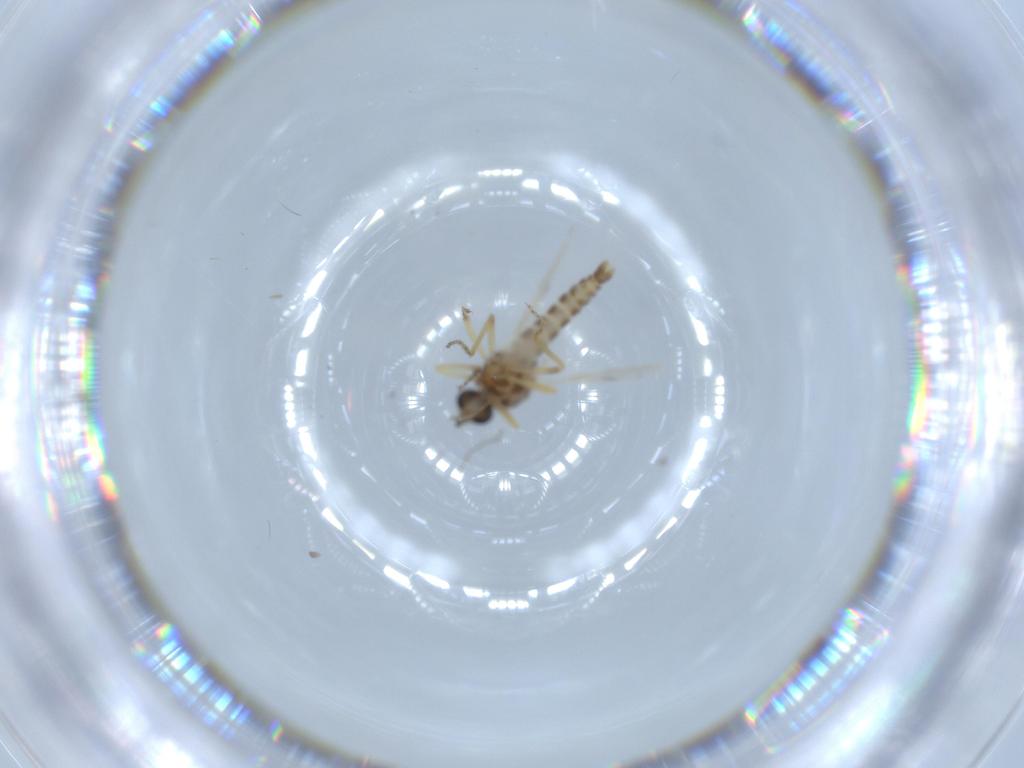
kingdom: Animalia
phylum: Arthropoda
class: Insecta
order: Diptera
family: Ceratopogonidae
